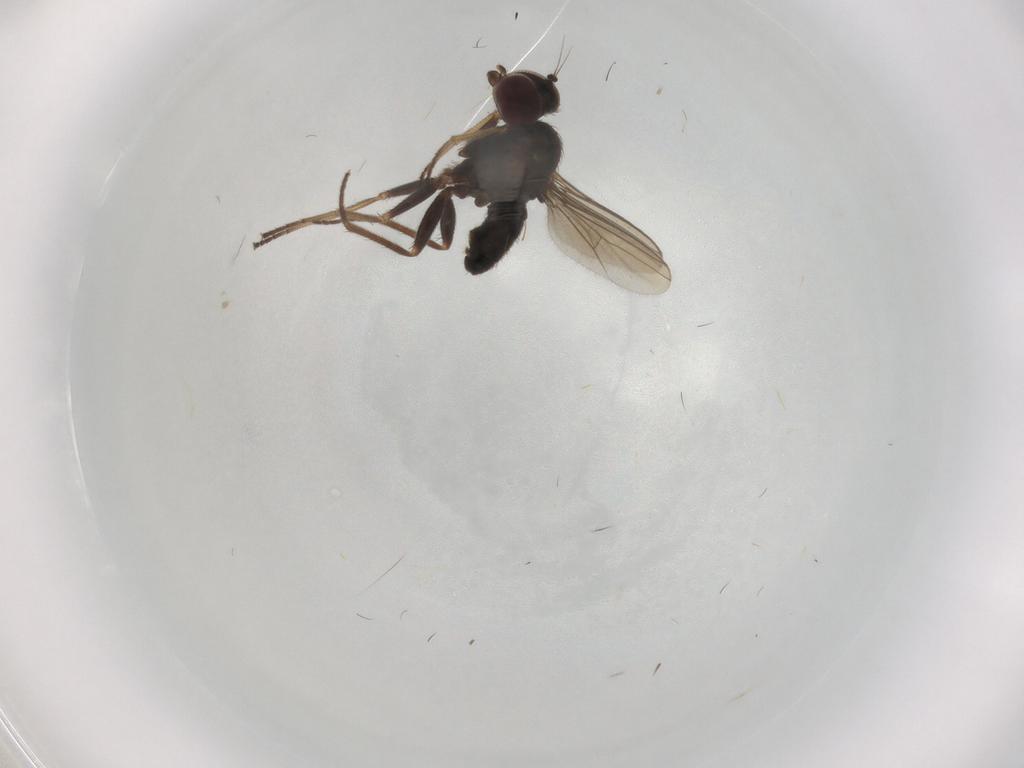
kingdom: Animalia
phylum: Arthropoda
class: Insecta
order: Diptera
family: Dolichopodidae
